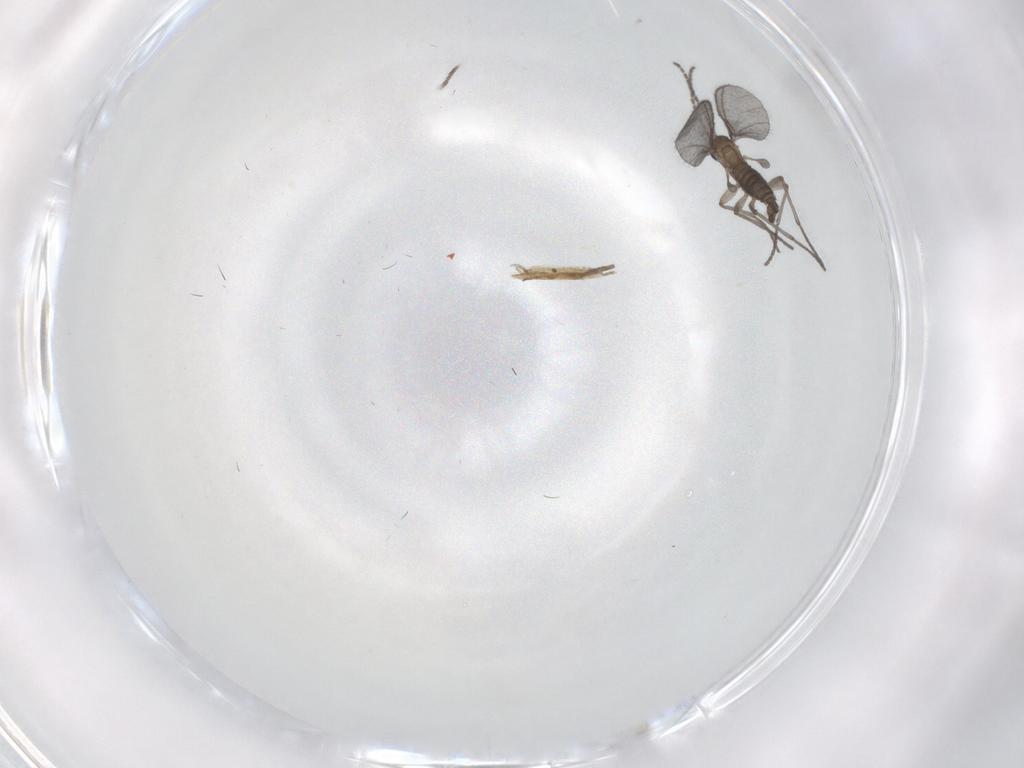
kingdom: Animalia
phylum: Arthropoda
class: Insecta
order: Diptera
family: Sciaridae
